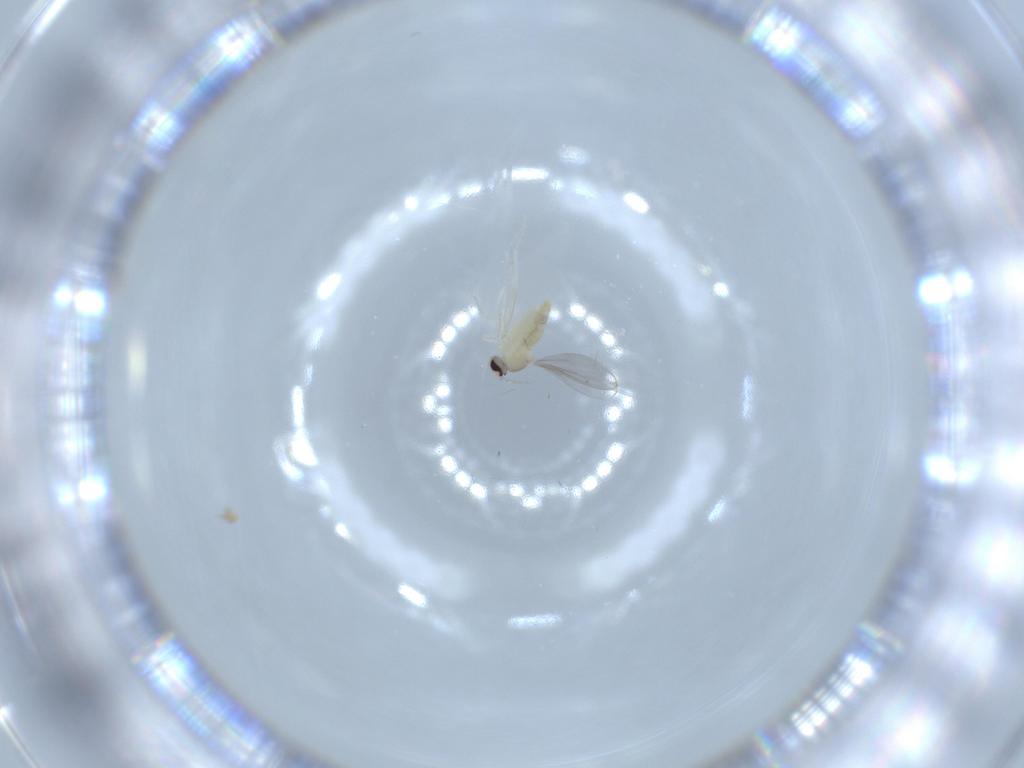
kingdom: Animalia
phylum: Arthropoda
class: Insecta
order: Diptera
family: Cecidomyiidae
